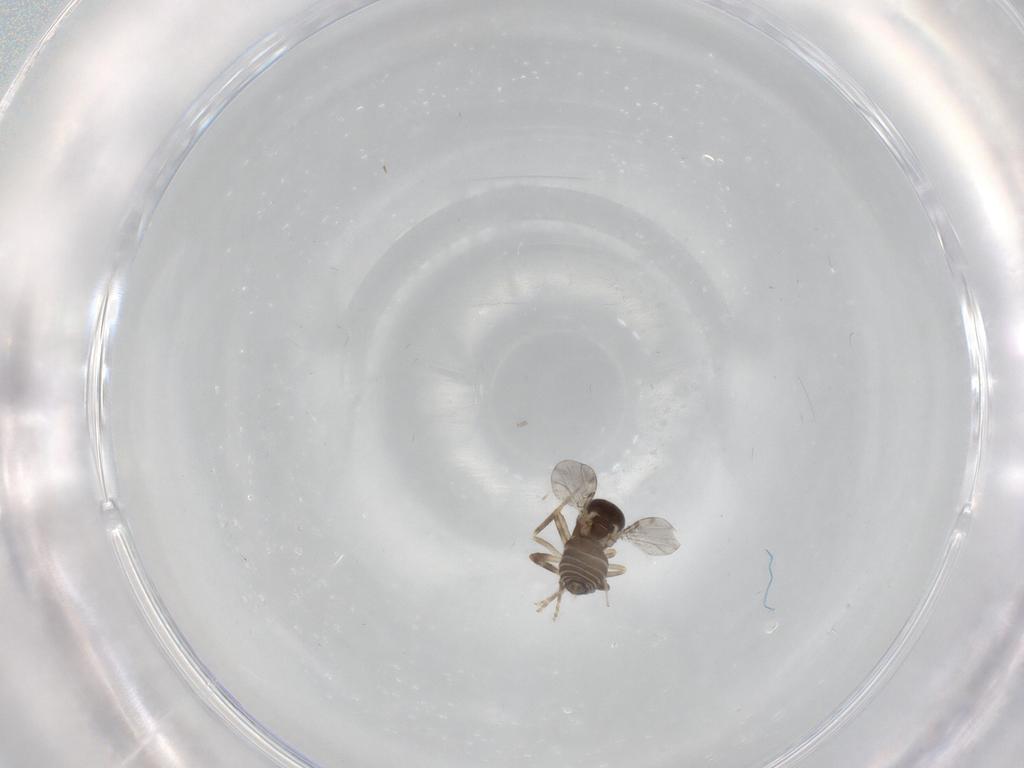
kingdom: Animalia
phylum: Arthropoda
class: Insecta
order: Diptera
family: Ceratopogonidae
